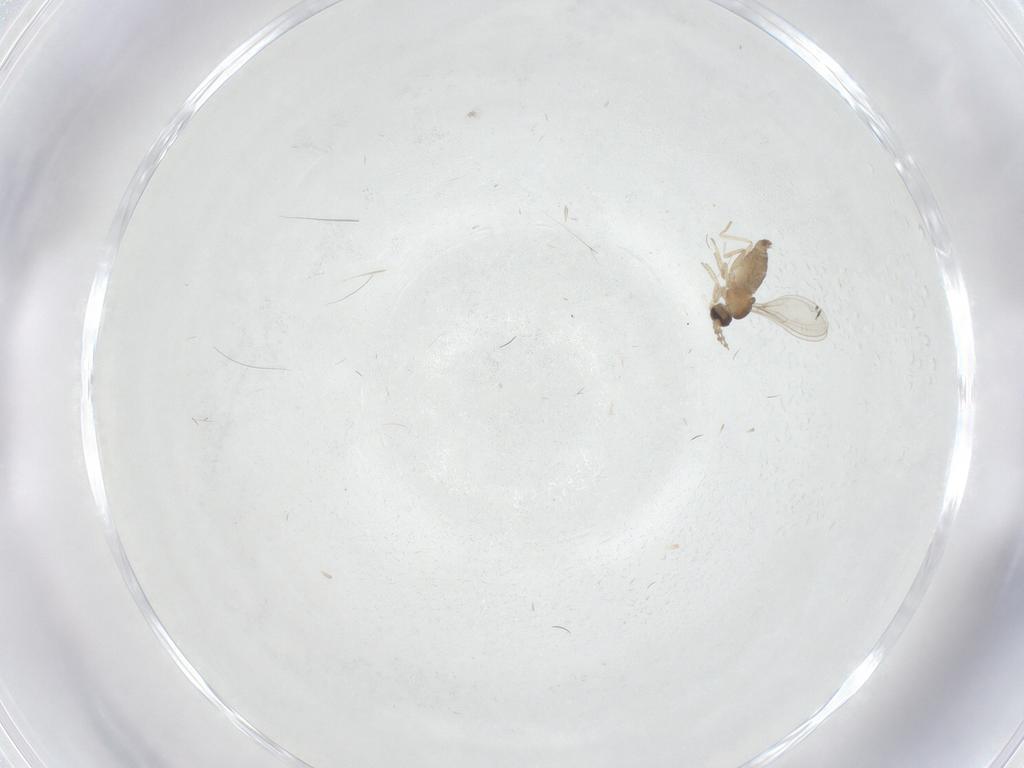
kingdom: Animalia
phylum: Arthropoda
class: Insecta
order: Diptera
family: Cecidomyiidae
